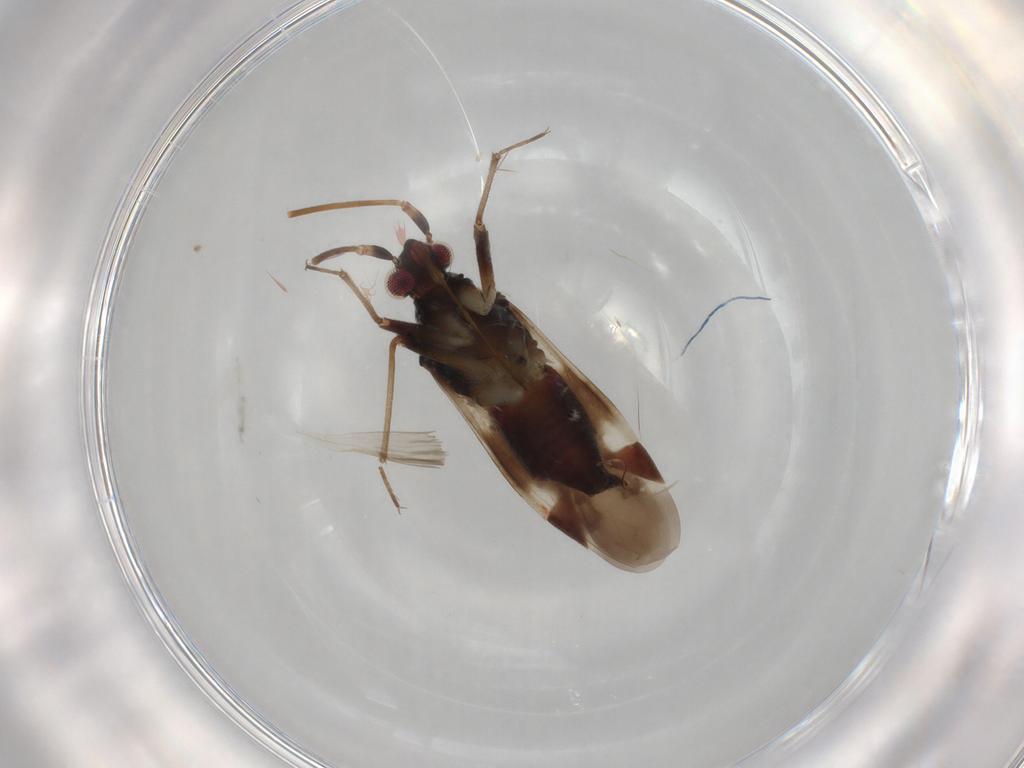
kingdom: Animalia
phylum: Arthropoda
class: Insecta
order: Hemiptera
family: Miridae
